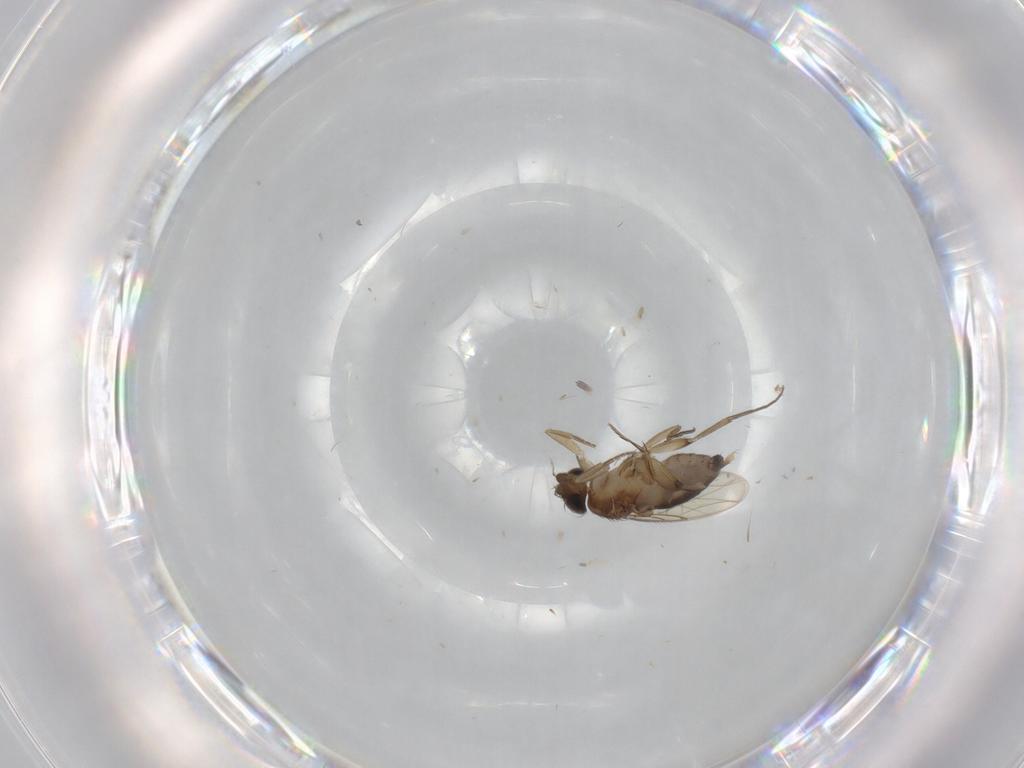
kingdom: Animalia
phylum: Arthropoda
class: Insecta
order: Diptera
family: Phoridae
